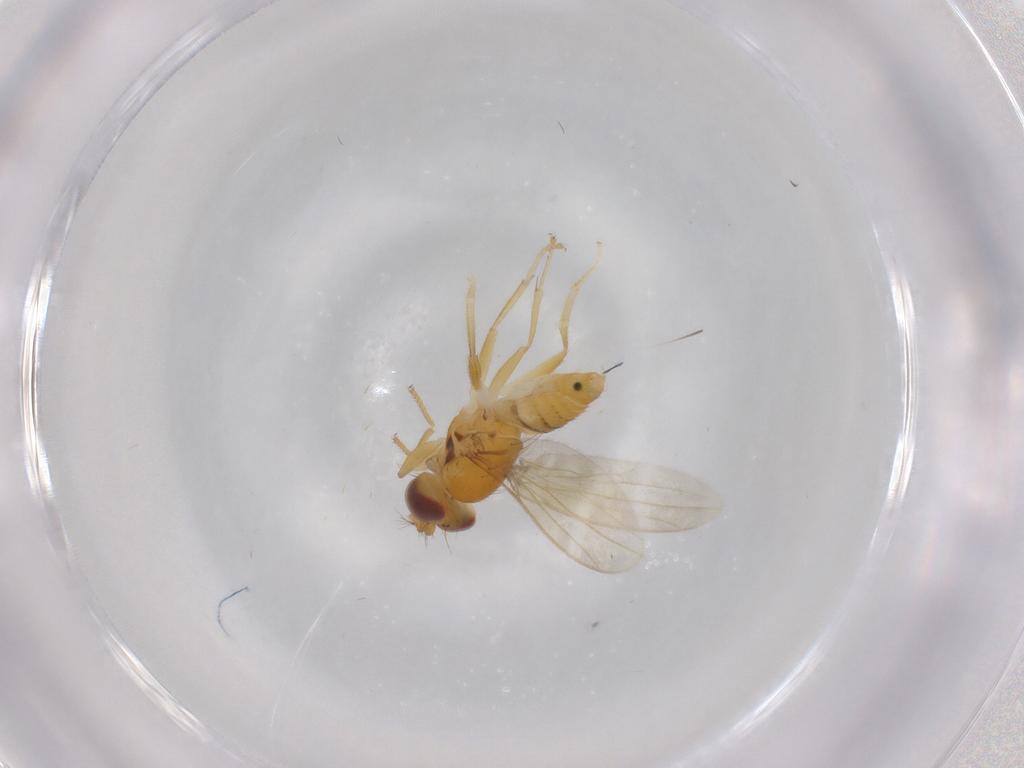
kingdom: Animalia
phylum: Arthropoda
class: Insecta
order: Diptera
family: Periscelididae
